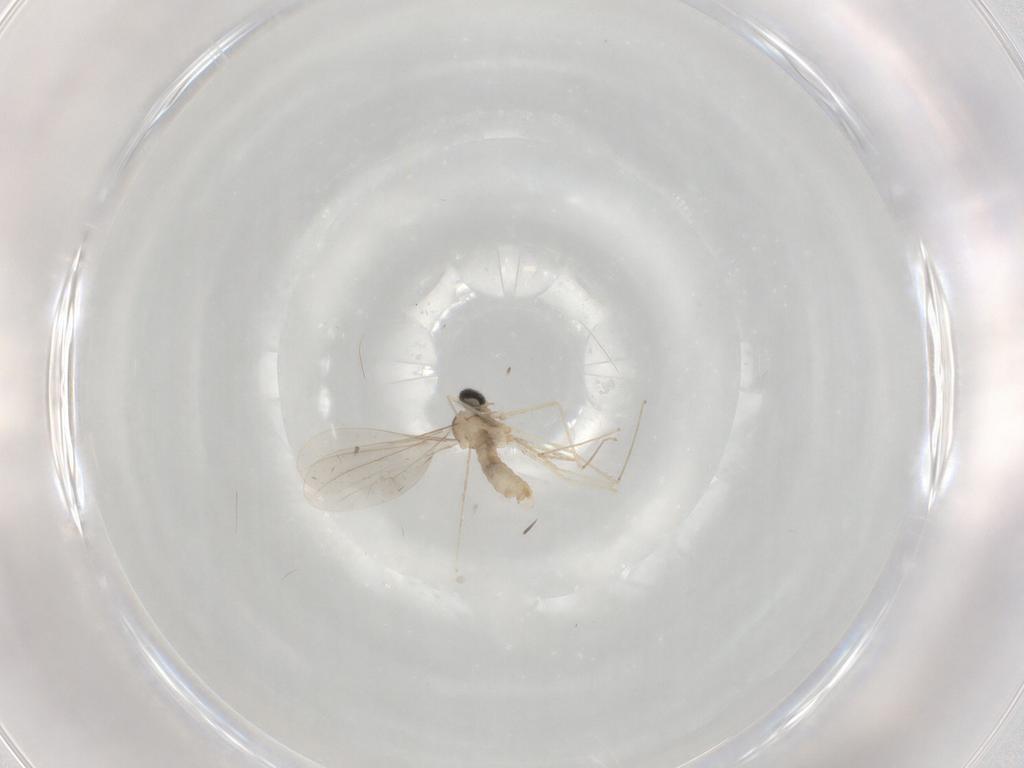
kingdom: Animalia
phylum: Arthropoda
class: Insecta
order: Diptera
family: Cecidomyiidae
